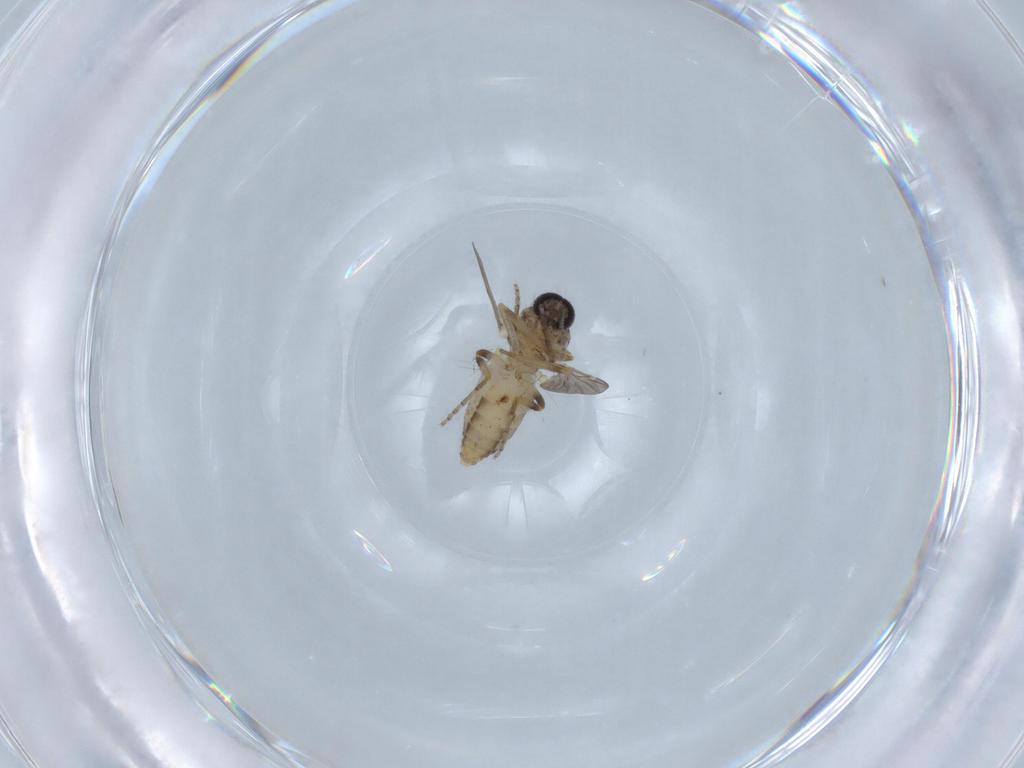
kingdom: Animalia
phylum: Arthropoda
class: Insecta
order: Diptera
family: Ceratopogonidae
